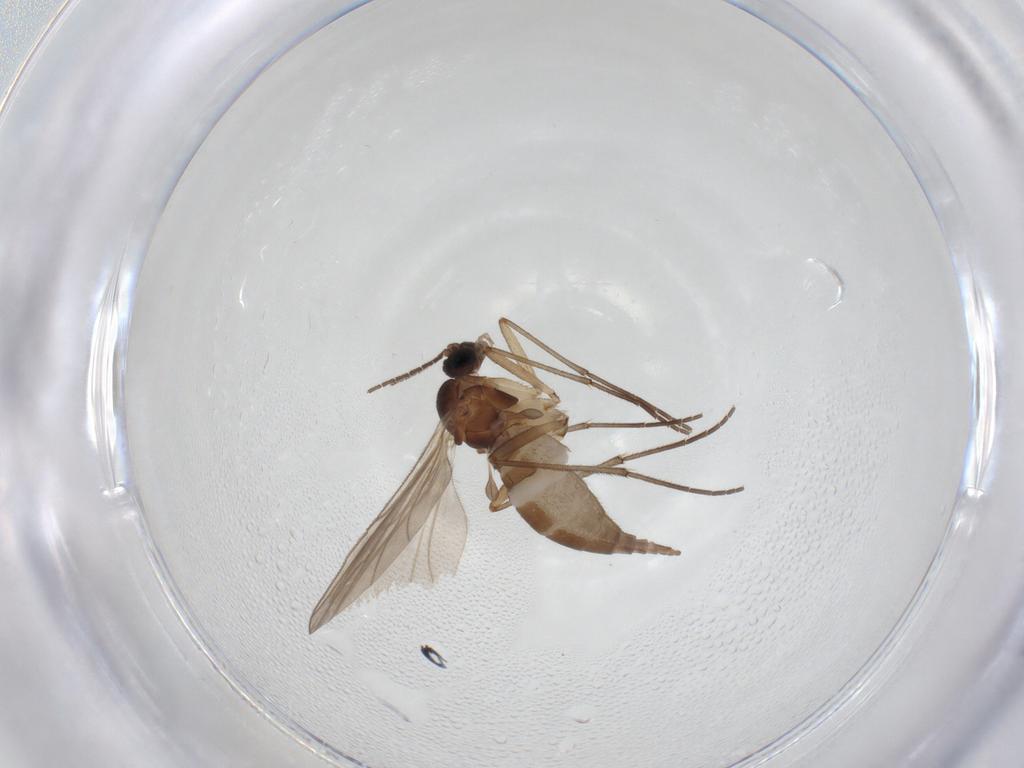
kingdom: Animalia
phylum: Arthropoda
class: Insecta
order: Diptera
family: Sciaridae
